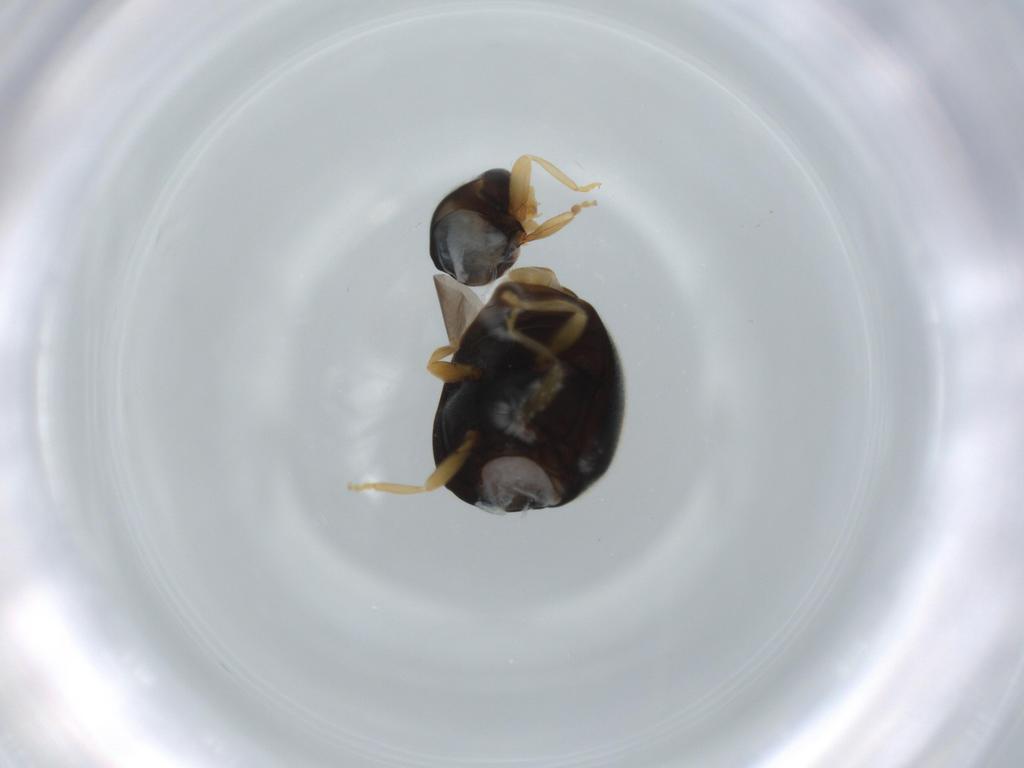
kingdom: Animalia
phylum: Arthropoda
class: Insecta
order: Coleoptera
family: Coccinellidae
